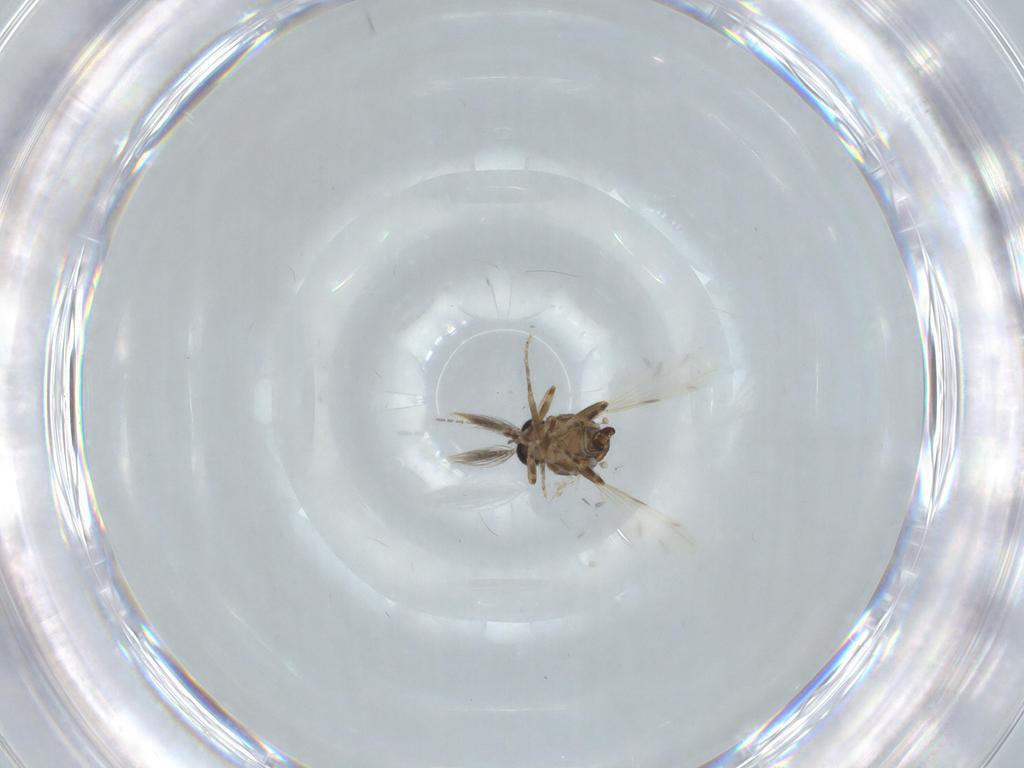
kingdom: Animalia
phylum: Arthropoda
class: Insecta
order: Diptera
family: Ceratopogonidae
